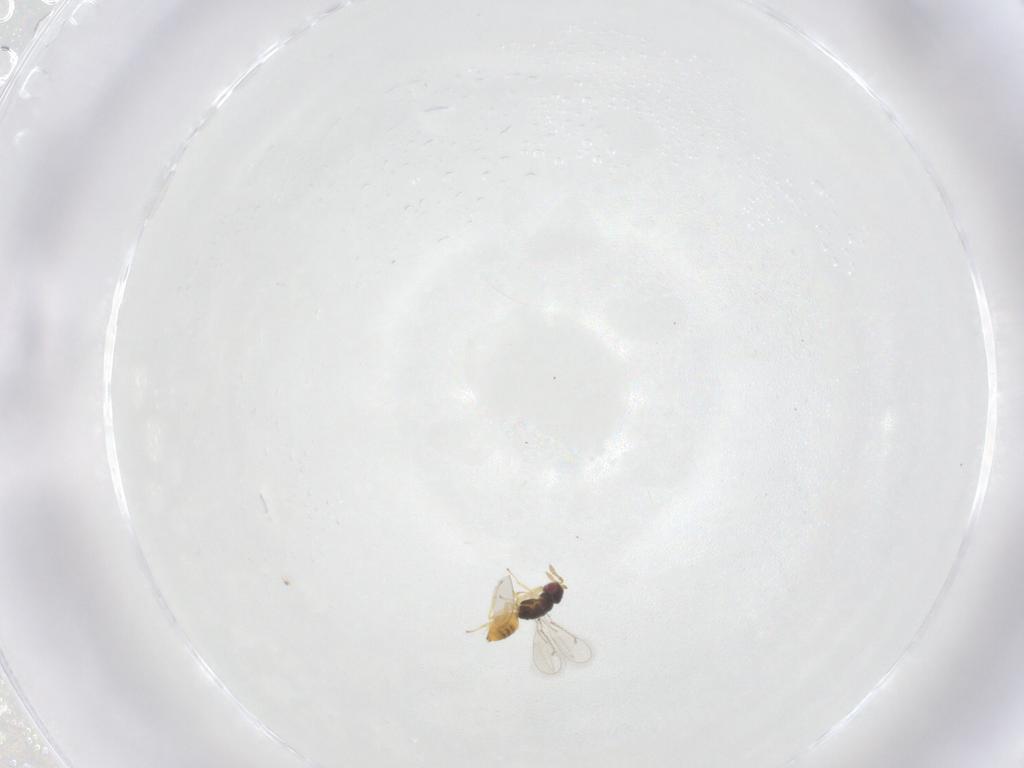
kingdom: Animalia
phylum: Arthropoda
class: Insecta
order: Hymenoptera
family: Eulophidae
